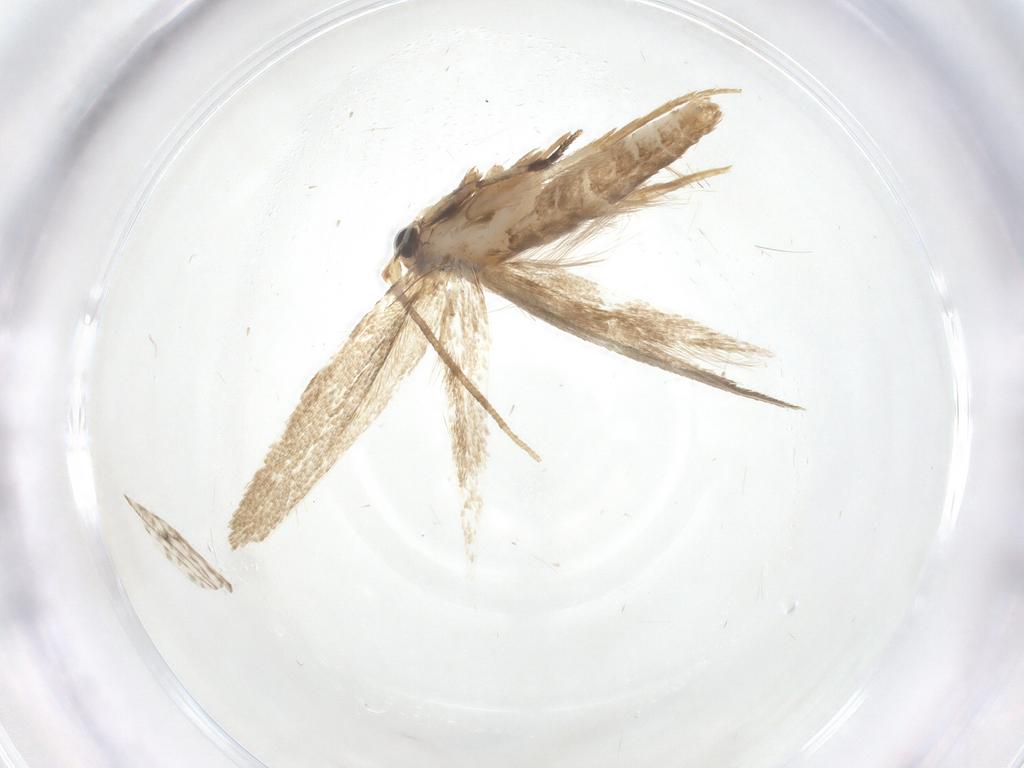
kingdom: Animalia
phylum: Arthropoda
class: Insecta
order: Lepidoptera
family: Tineidae
